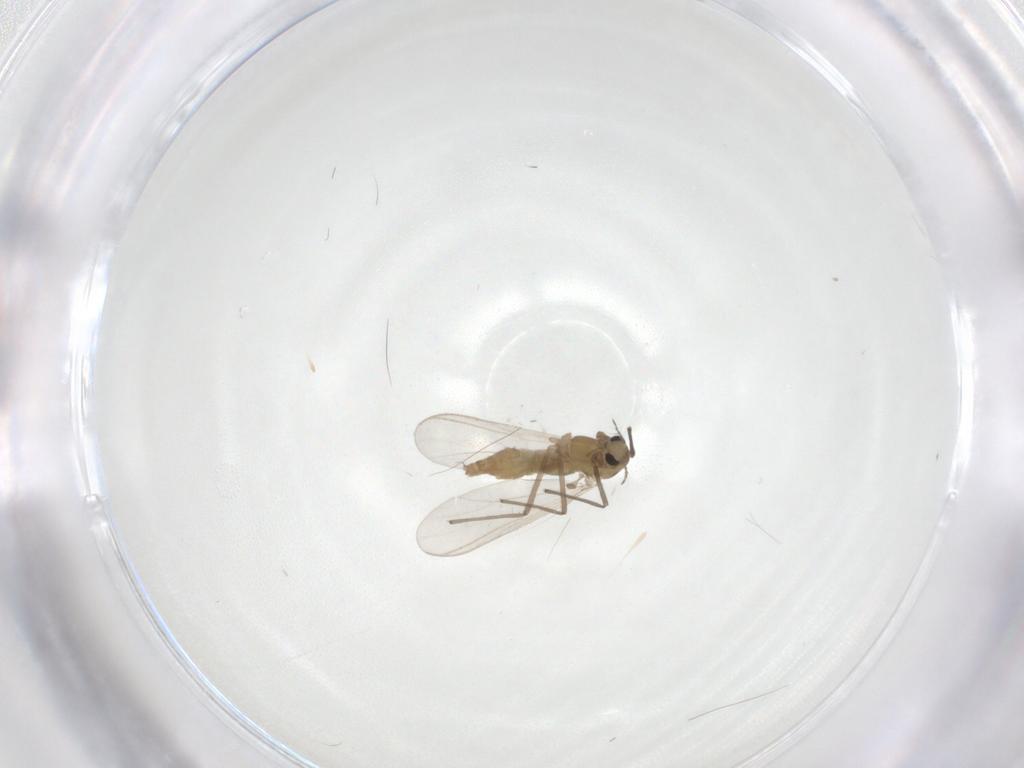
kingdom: Animalia
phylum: Arthropoda
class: Insecta
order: Diptera
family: Chironomidae
